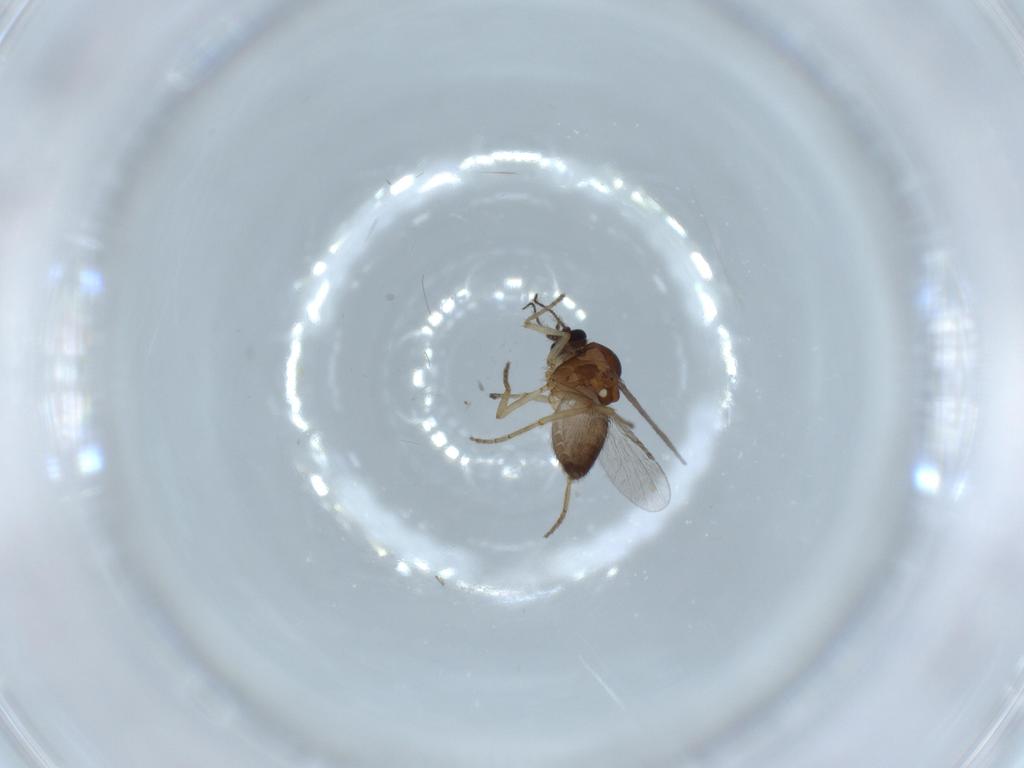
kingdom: Animalia
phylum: Arthropoda
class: Insecta
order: Diptera
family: Ceratopogonidae
